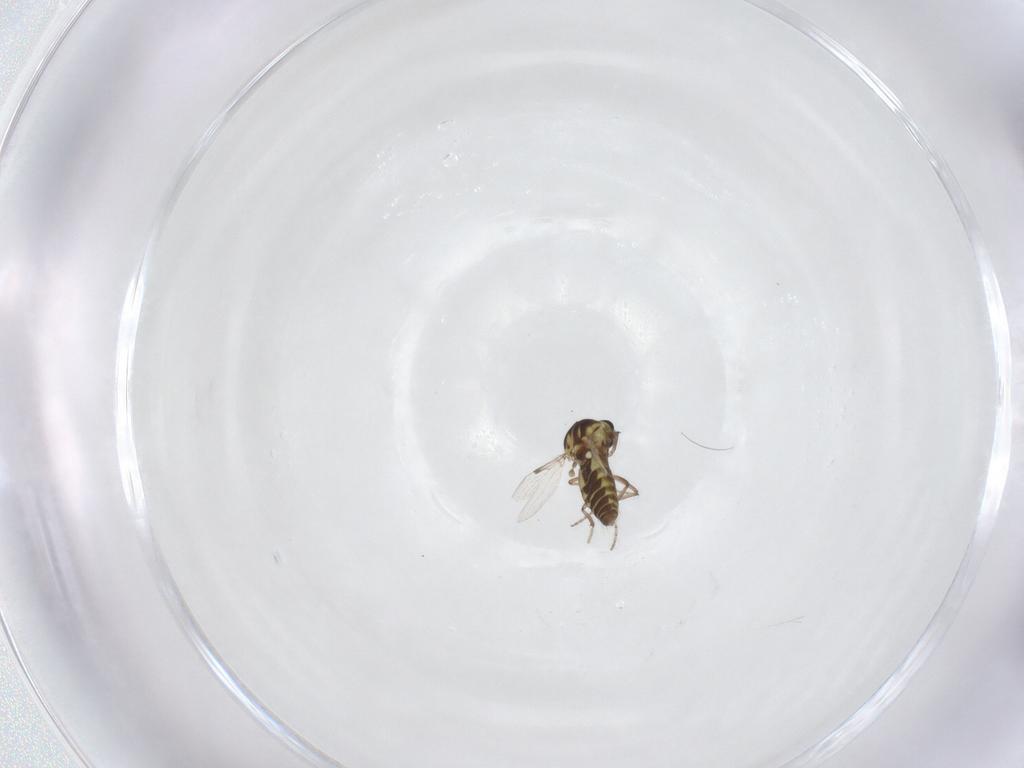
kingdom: Animalia
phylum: Arthropoda
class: Insecta
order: Diptera
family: Ceratopogonidae
